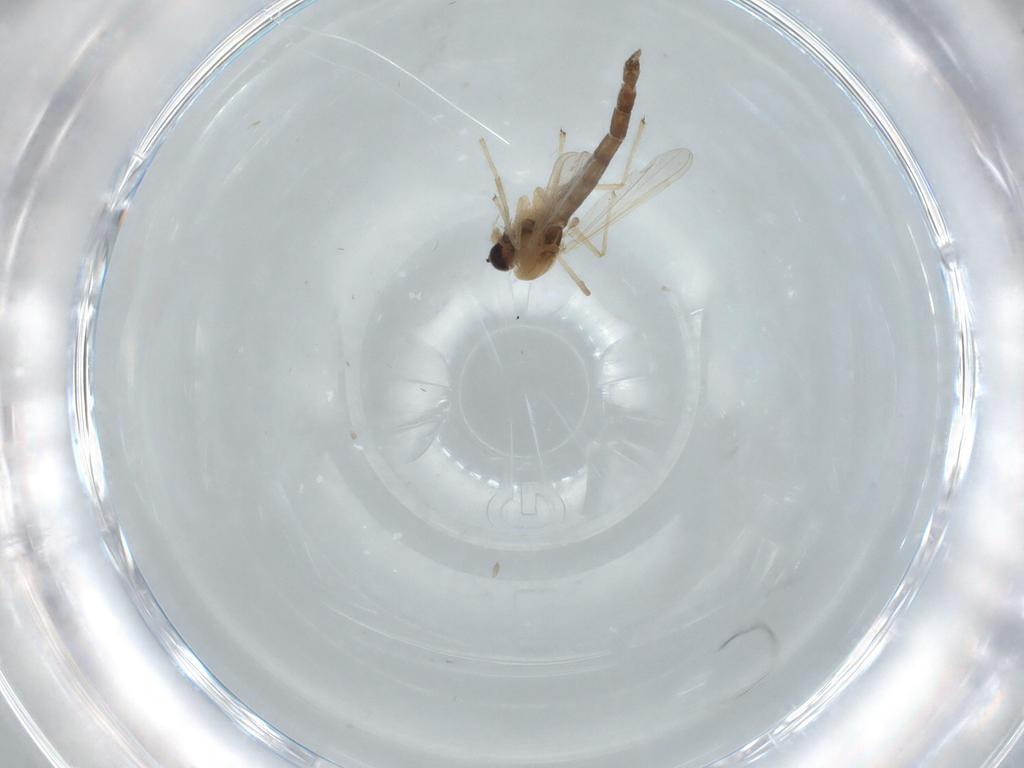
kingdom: Animalia
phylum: Arthropoda
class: Insecta
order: Diptera
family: Chironomidae
